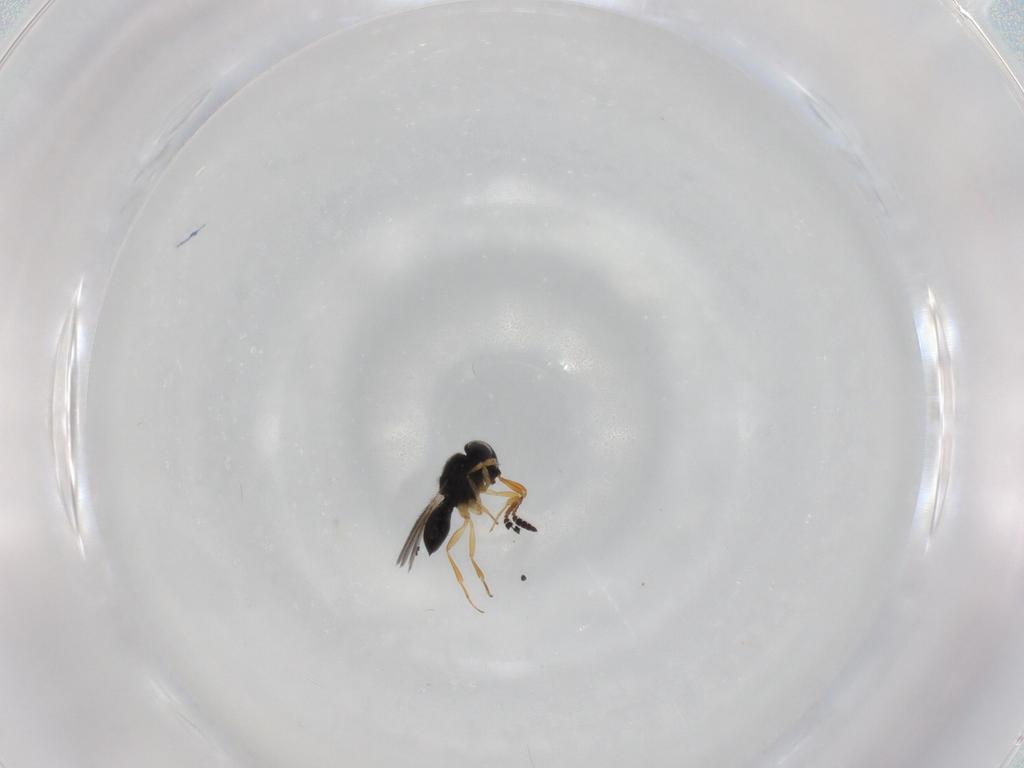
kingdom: Animalia
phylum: Arthropoda
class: Insecta
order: Hymenoptera
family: Scelionidae
